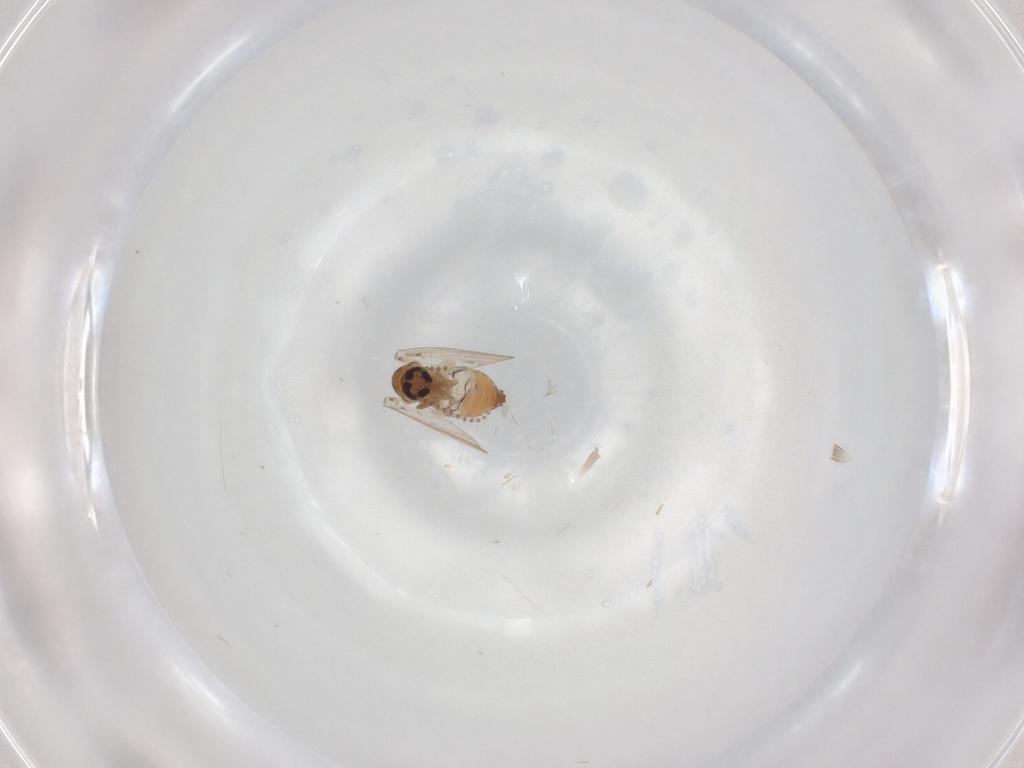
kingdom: Animalia
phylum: Arthropoda
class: Insecta
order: Diptera
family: Psychodidae
